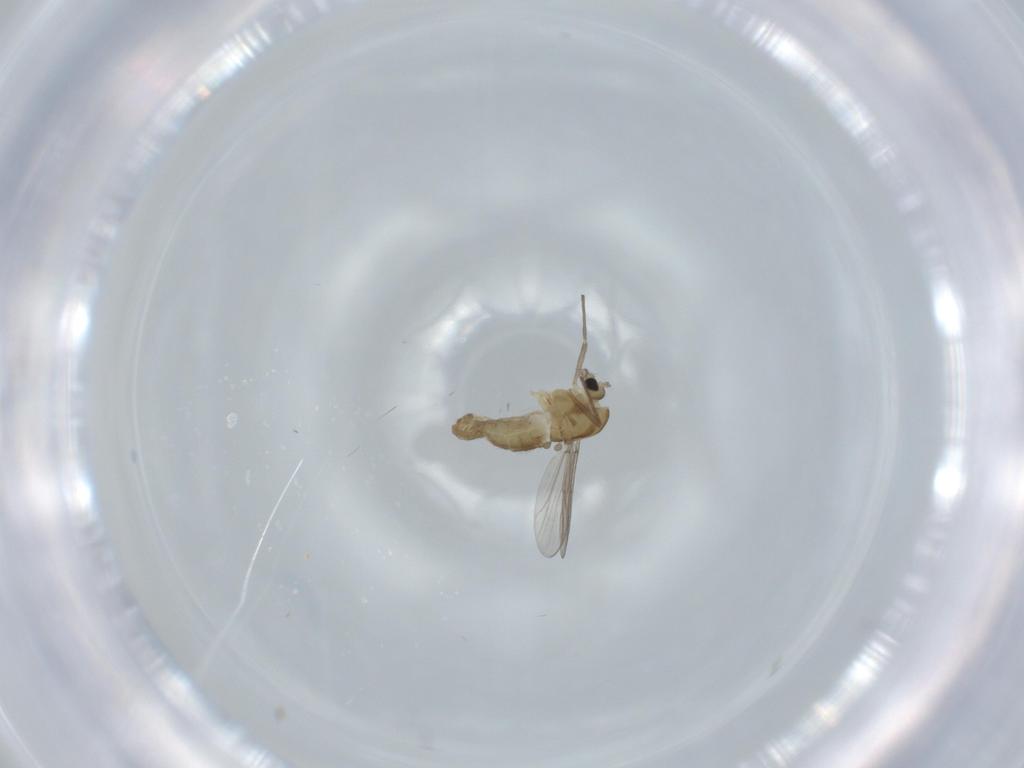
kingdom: Animalia
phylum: Arthropoda
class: Insecta
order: Diptera
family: Chironomidae
